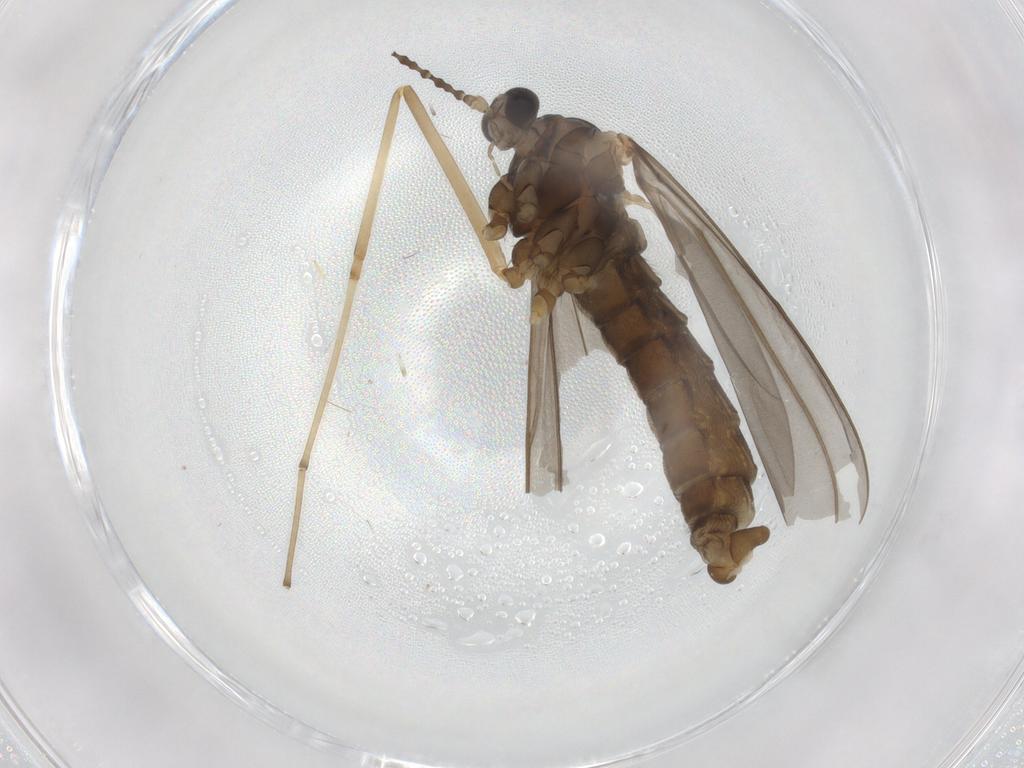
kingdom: Animalia
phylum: Arthropoda
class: Insecta
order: Diptera
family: Cecidomyiidae
